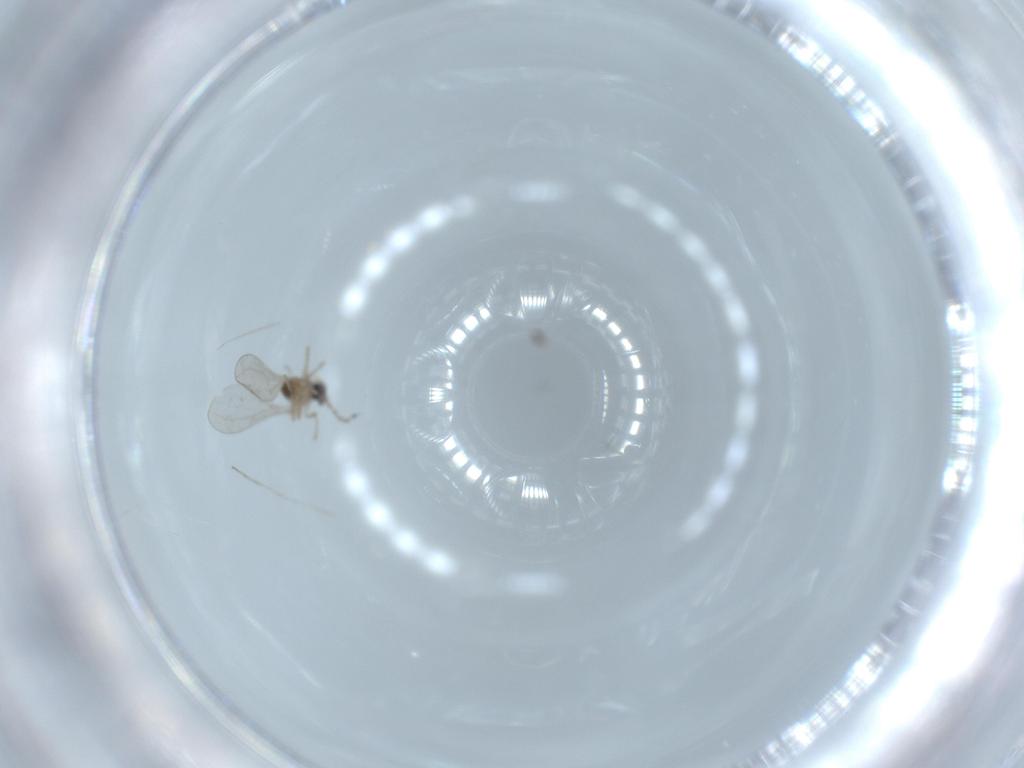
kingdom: Animalia
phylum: Arthropoda
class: Insecta
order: Diptera
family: Cecidomyiidae
